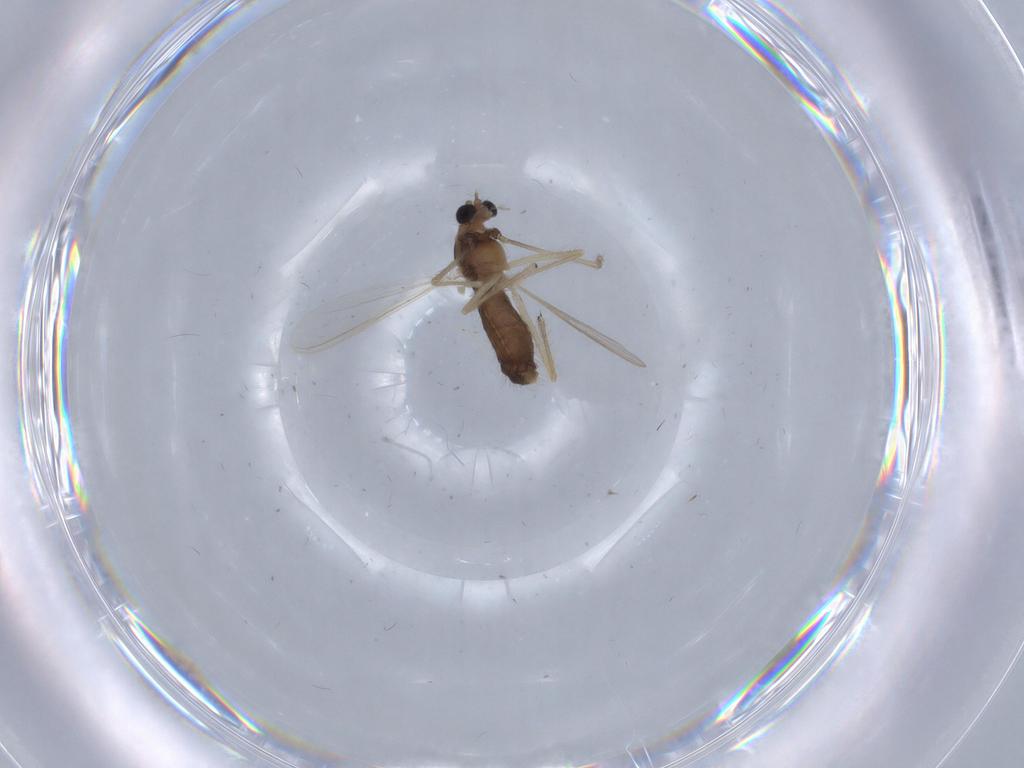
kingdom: Animalia
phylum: Arthropoda
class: Insecta
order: Diptera
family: Chironomidae
